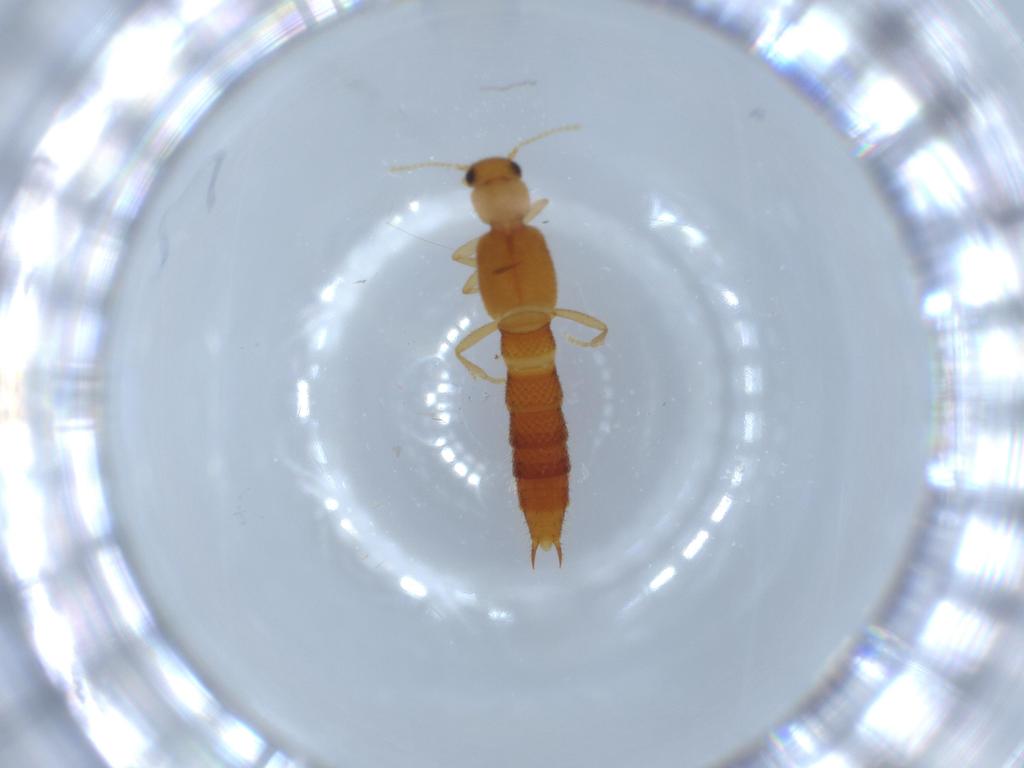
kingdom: Animalia
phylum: Arthropoda
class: Insecta
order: Coleoptera
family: Staphylinidae
